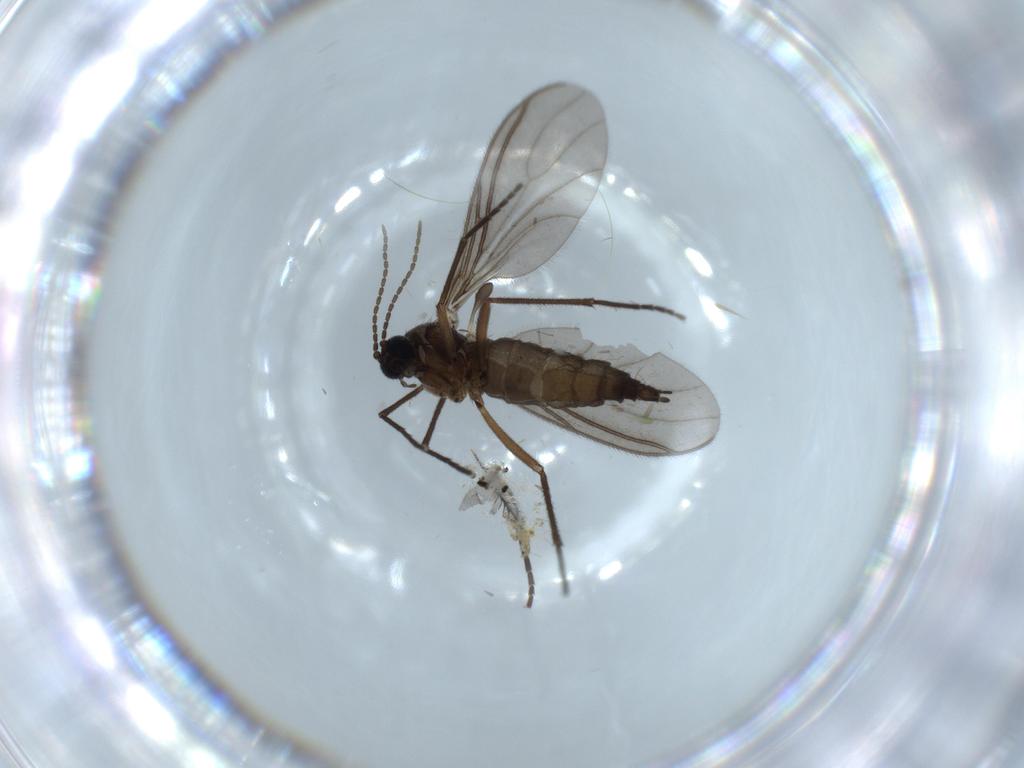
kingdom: Animalia
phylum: Arthropoda
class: Insecta
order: Diptera
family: Cecidomyiidae
